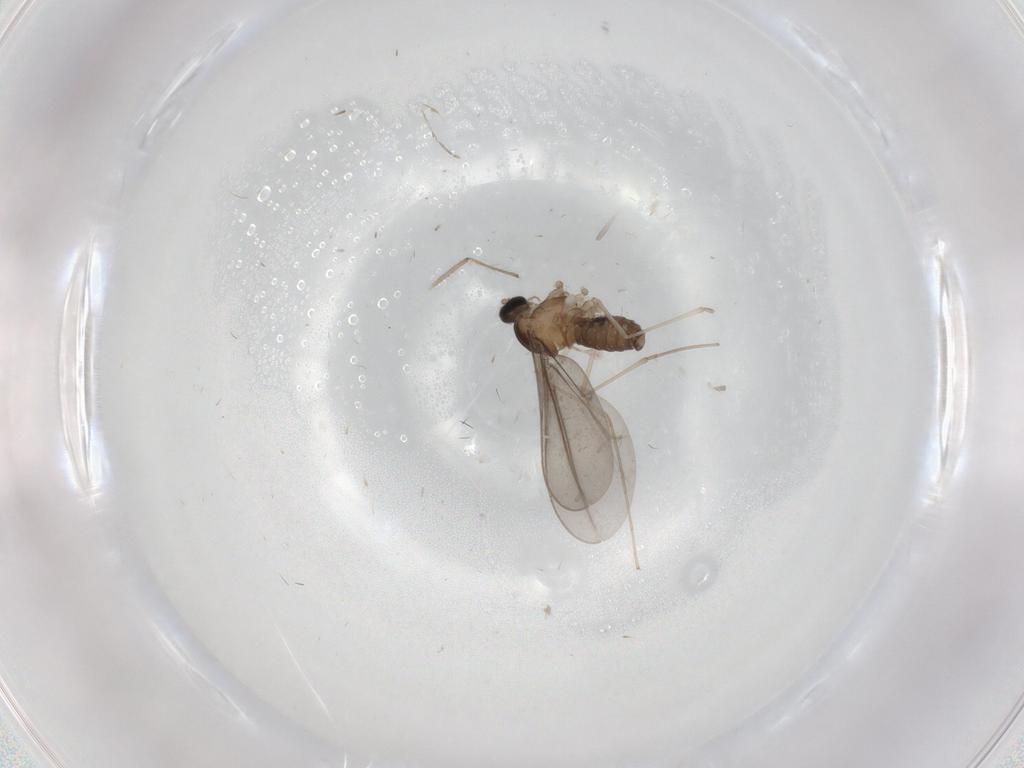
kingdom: Animalia
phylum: Arthropoda
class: Insecta
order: Diptera
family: Cecidomyiidae
